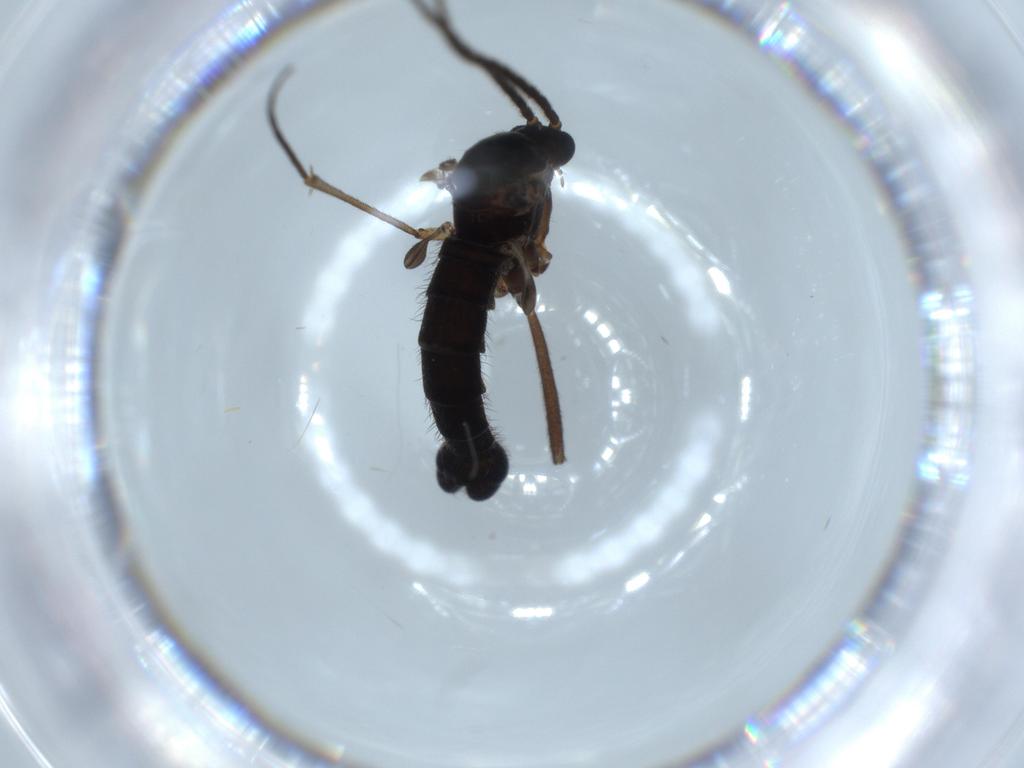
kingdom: Animalia
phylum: Arthropoda
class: Insecta
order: Diptera
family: Sciaridae
